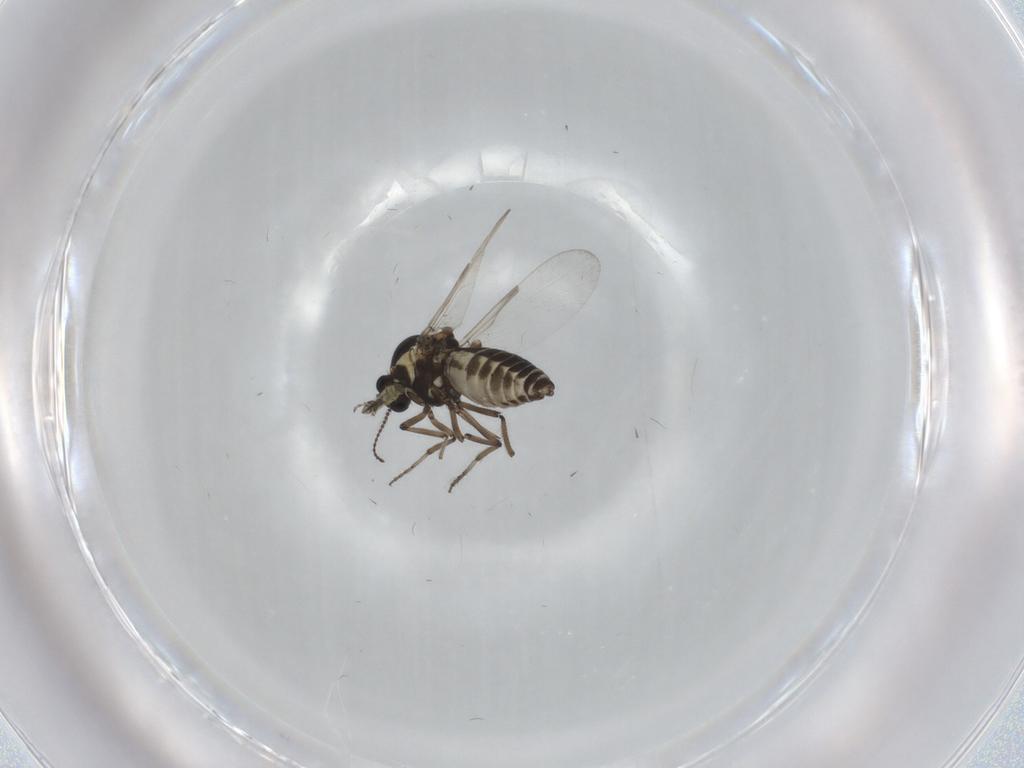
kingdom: Animalia
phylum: Arthropoda
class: Insecta
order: Diptera
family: Ceratopogonidae
